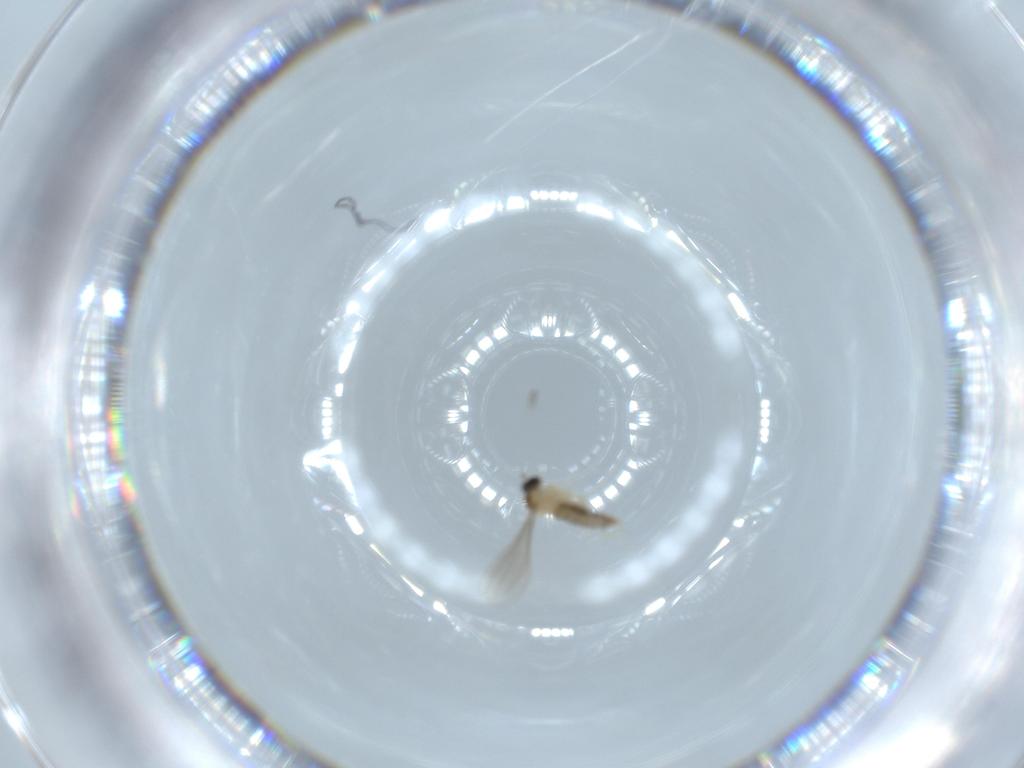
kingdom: Animalia
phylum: Arthropoda
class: Insecta
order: Diptera
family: Cecidomyiidae
